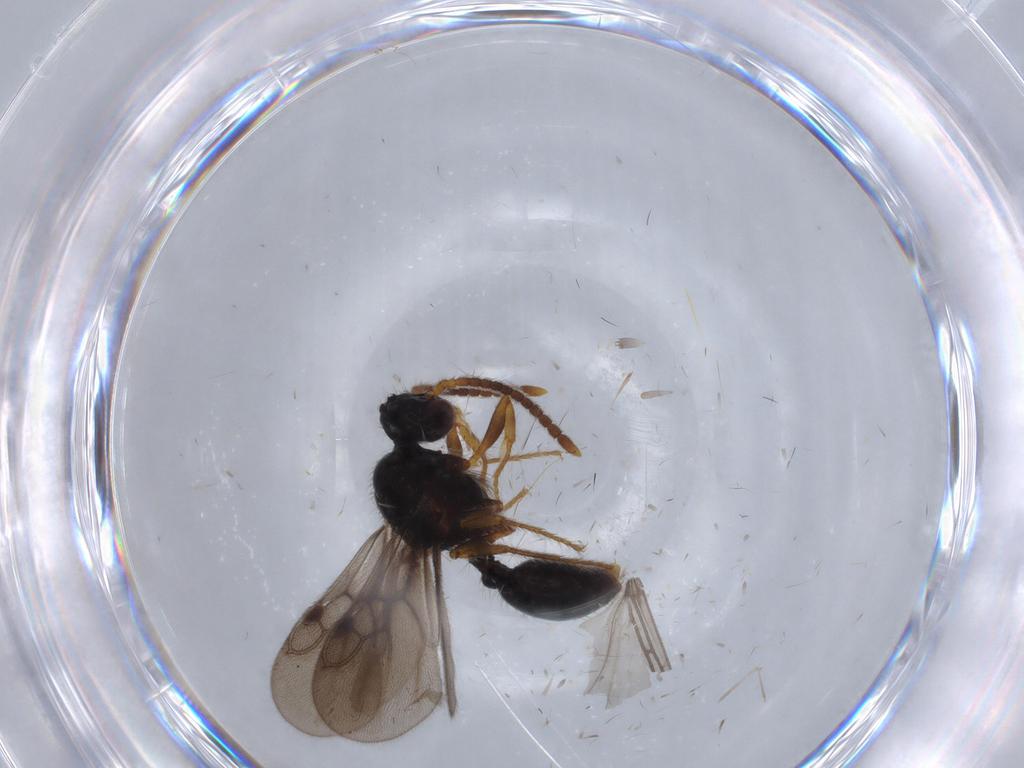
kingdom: Animalia
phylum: Arthropoda
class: Insecta
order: Hymenoptera
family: Formicidae
